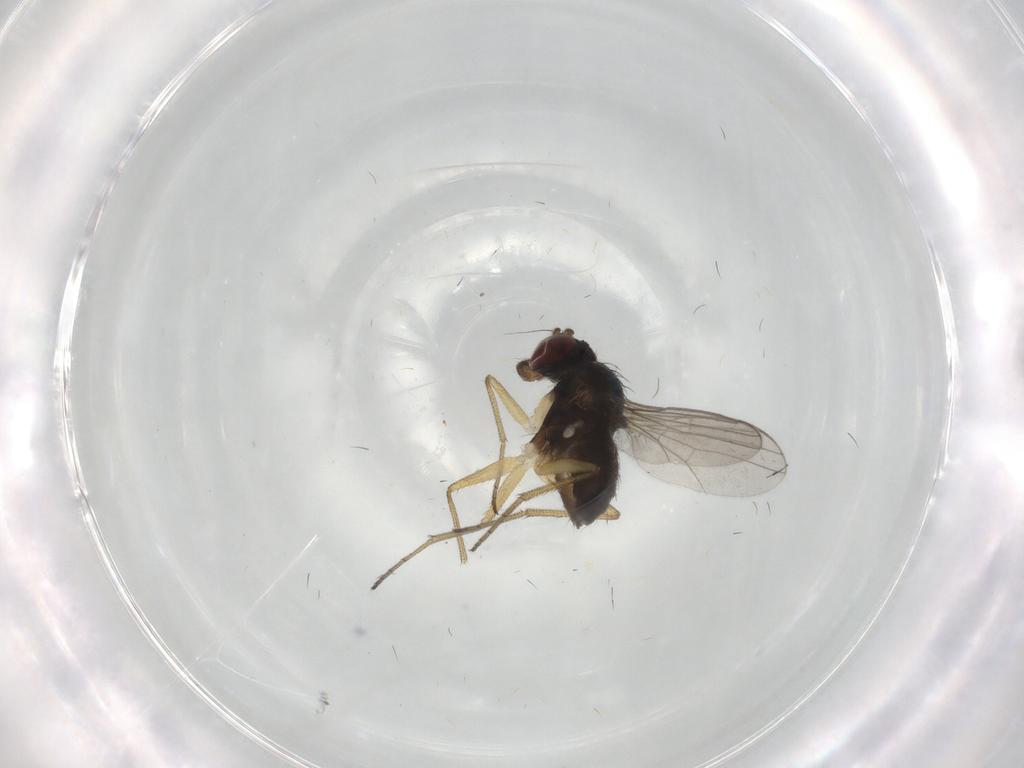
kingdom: Animalia
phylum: Arthropoda
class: Insecta
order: Diptera
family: Dolichopodidae
